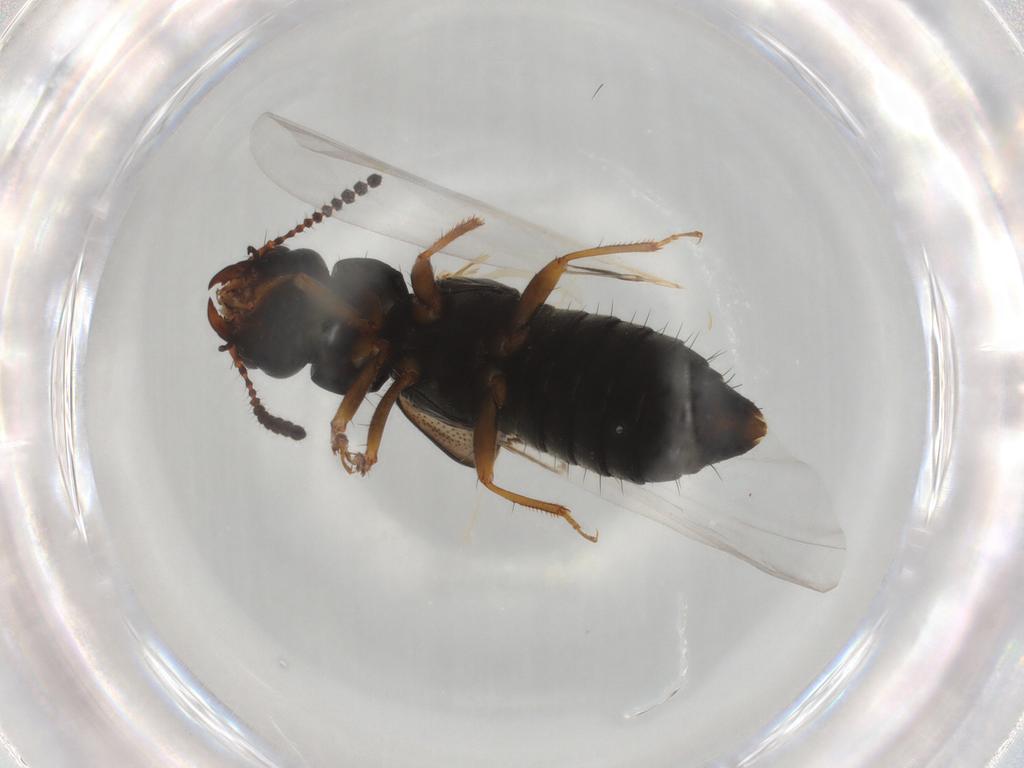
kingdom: Animalia
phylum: Arthropoda
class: Insecta
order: Coleoptera
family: Staphylinidae
